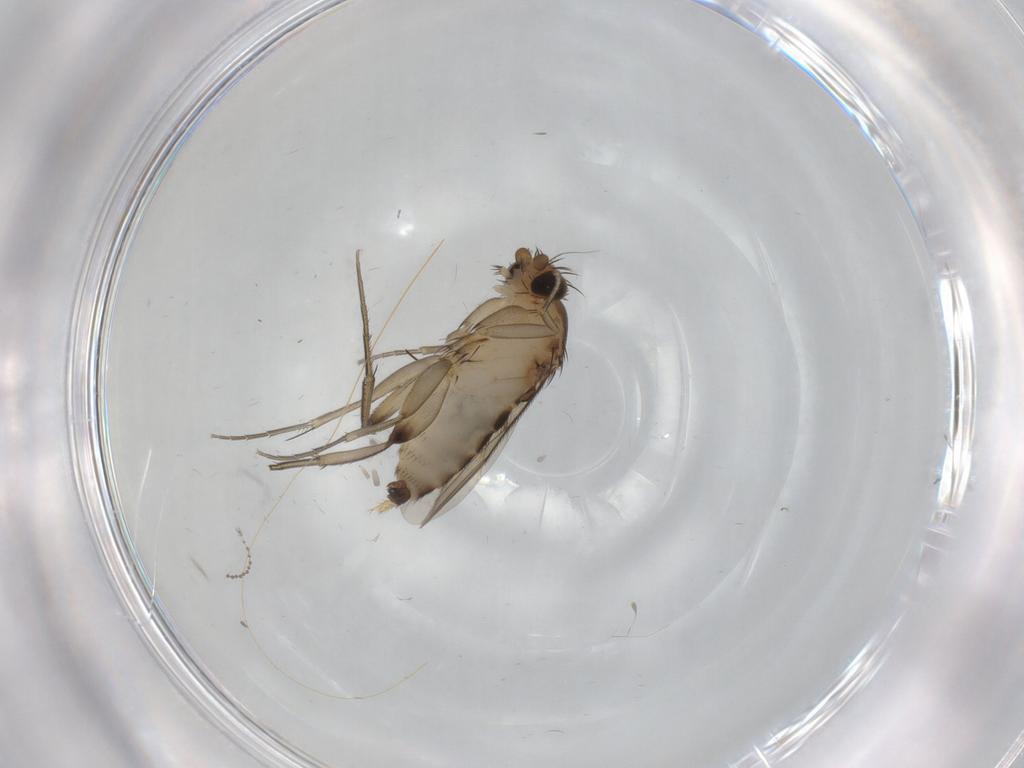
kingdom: Animalia
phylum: Arthropoda
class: Insecta
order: Diptera
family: Phoridae
